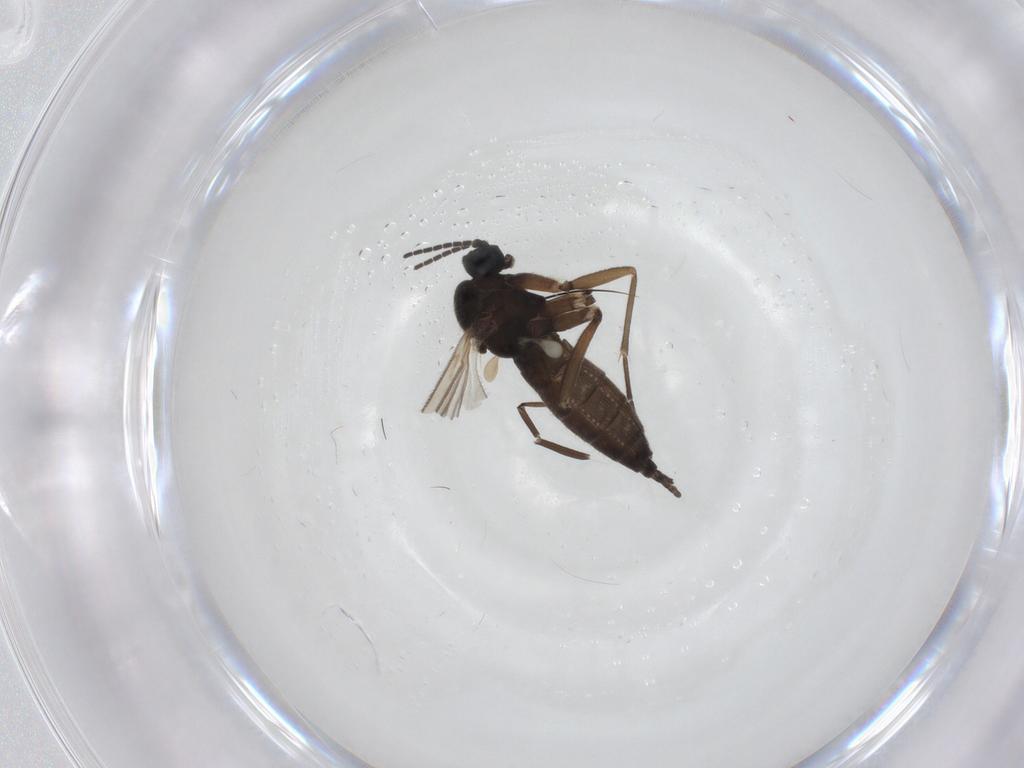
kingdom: Animalia
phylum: Arthropoda
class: Insecta
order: Diptera
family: Sciaridae
